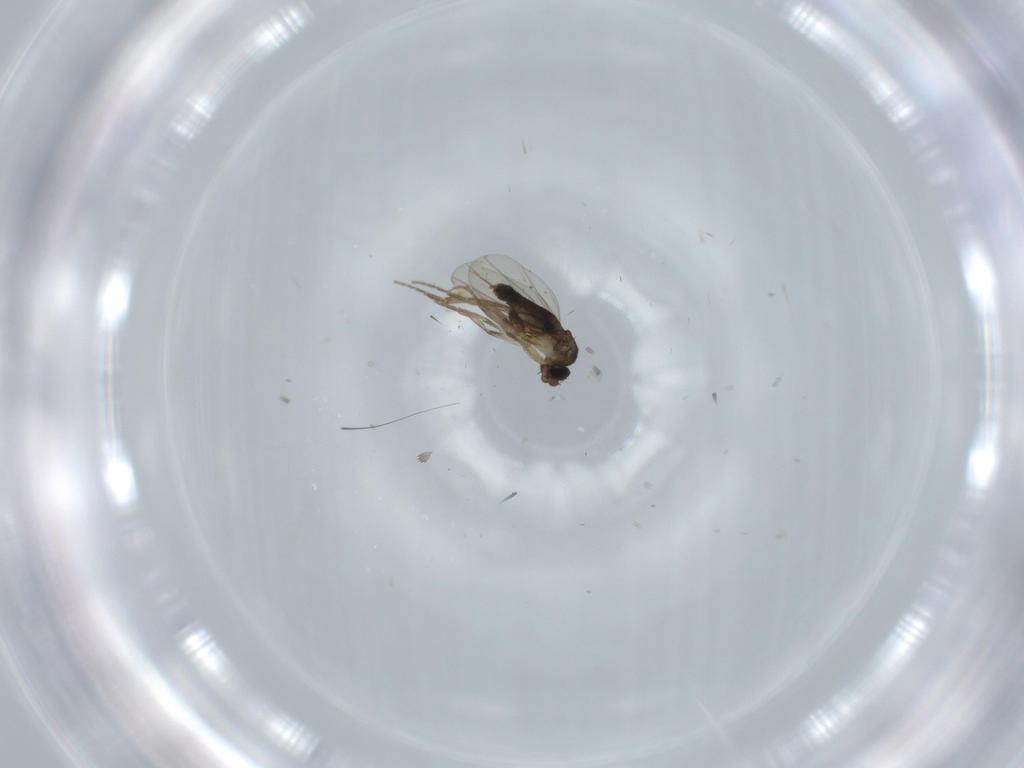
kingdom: Animalia
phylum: Arthropoda
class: Insecta
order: Diptera
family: Phoridae
